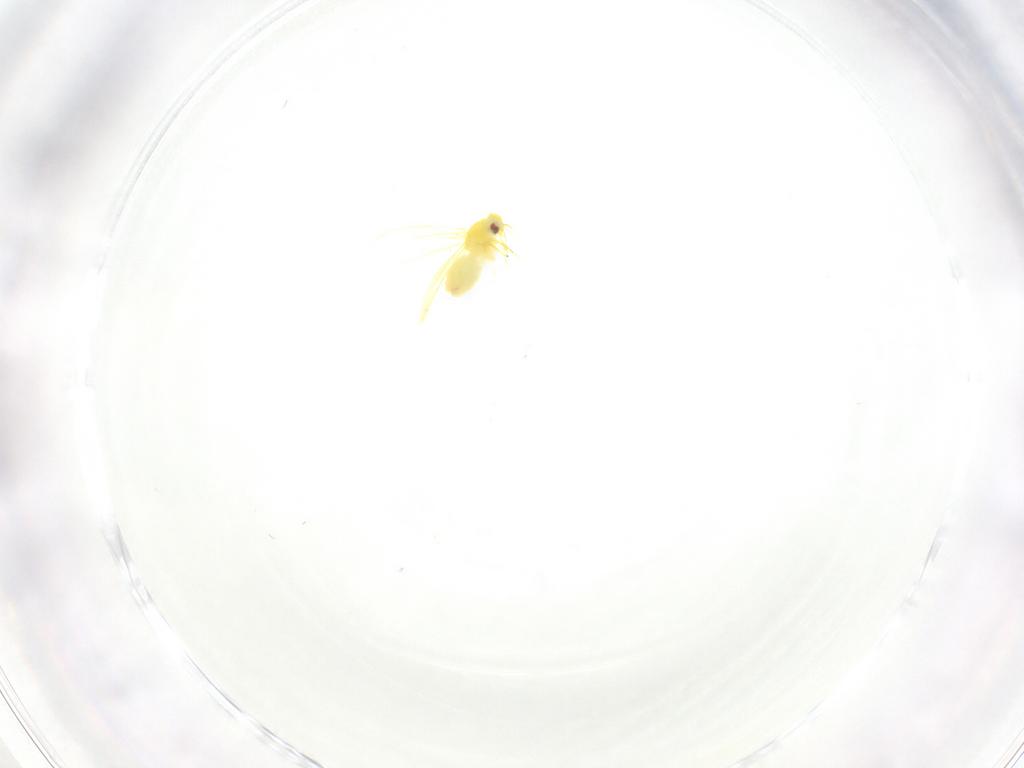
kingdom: Animalia
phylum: Arthropoda
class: Insecta
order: Hemiptera
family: Aleyrodidae
